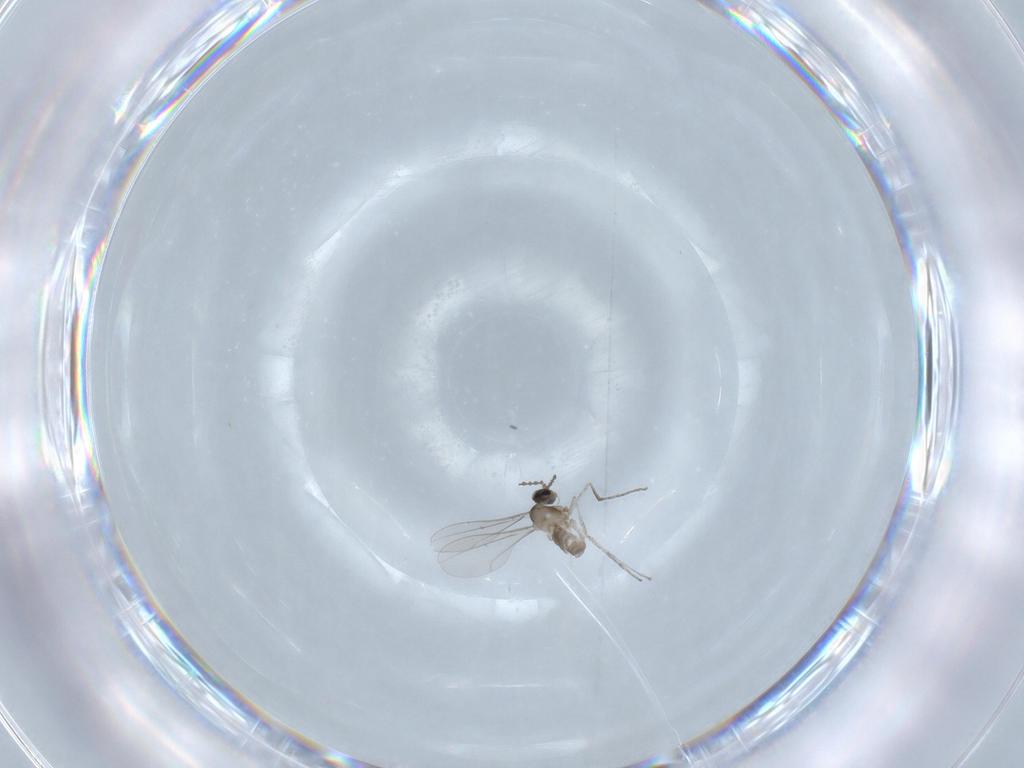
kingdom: Animalia
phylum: Arthropoda
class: Insecta
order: Diptera
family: Cecidomyiidae
